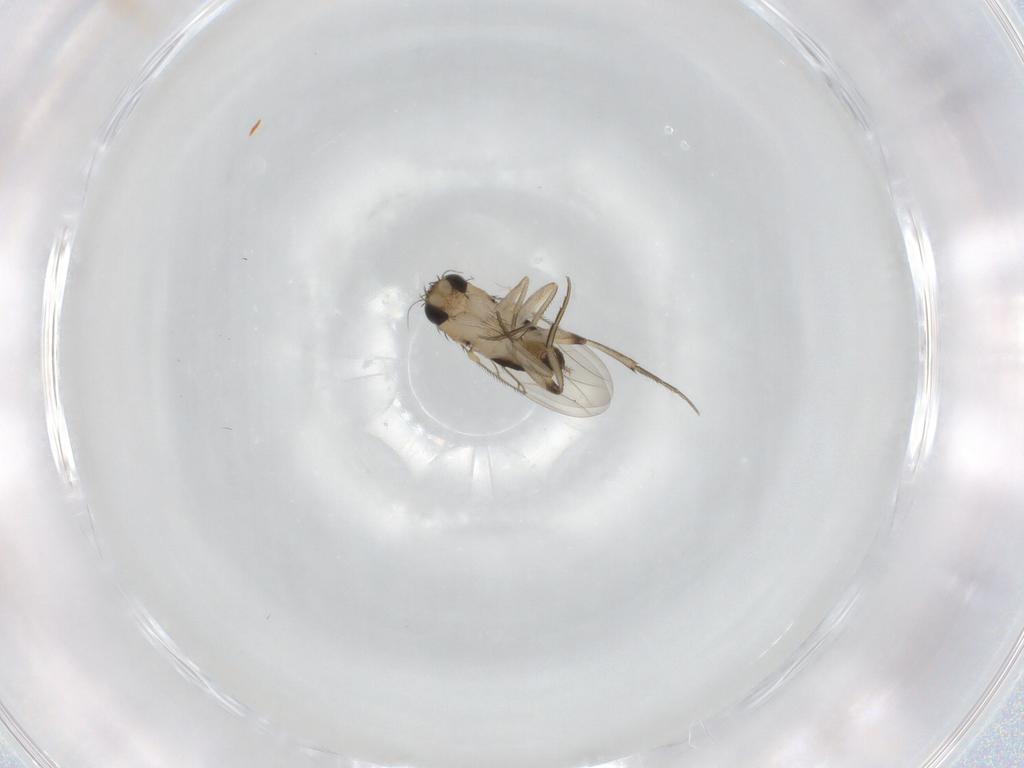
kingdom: Animalia
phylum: Arthropoda
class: Insecta
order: Diptera
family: Phoridae
